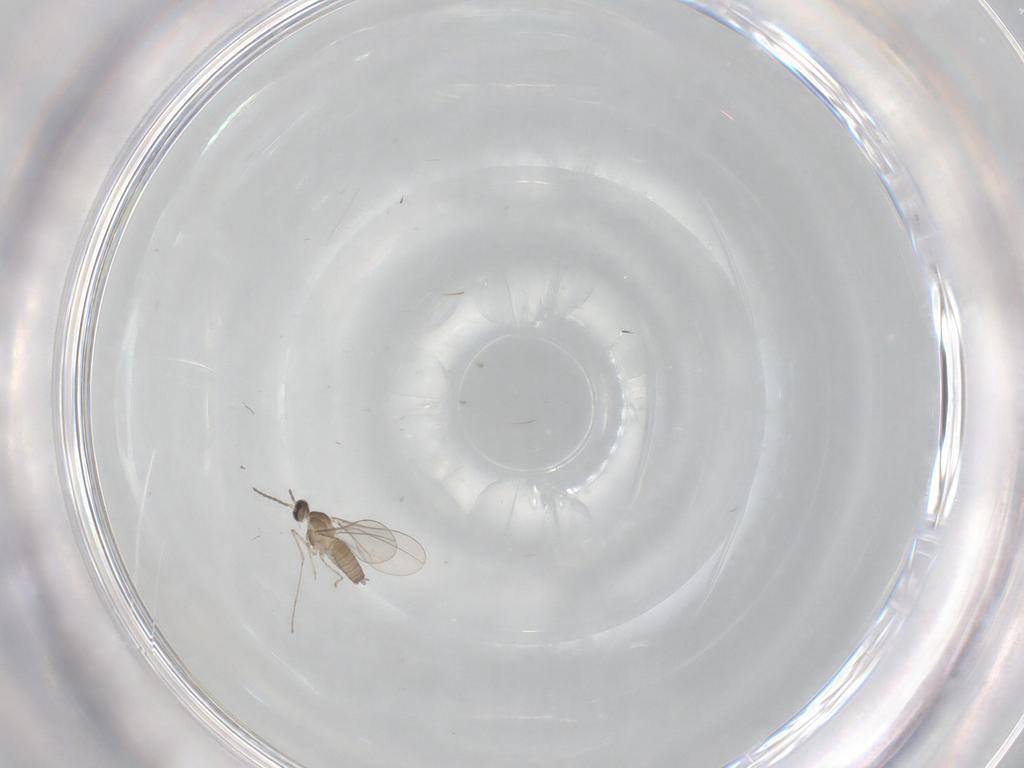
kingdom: Animalia
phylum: Arthropoda
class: Insecta
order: Diptera
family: Cecidomyiidae
